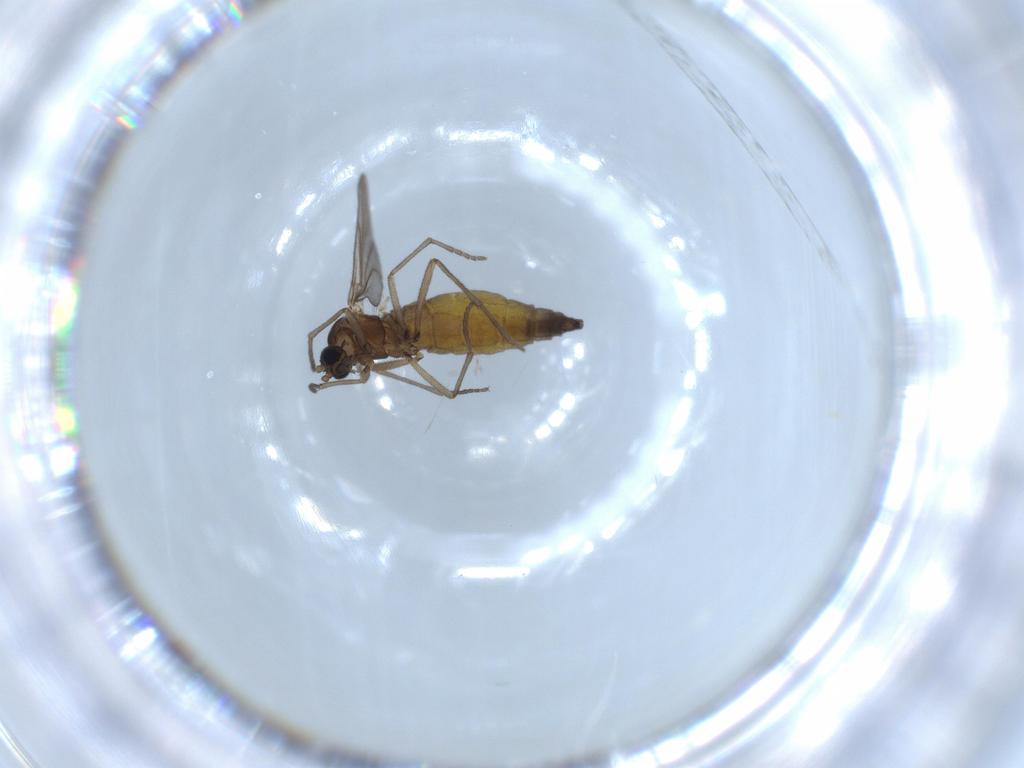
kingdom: Animalia
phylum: Arthropoda
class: Insecta
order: Diptera
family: Sciaridae
